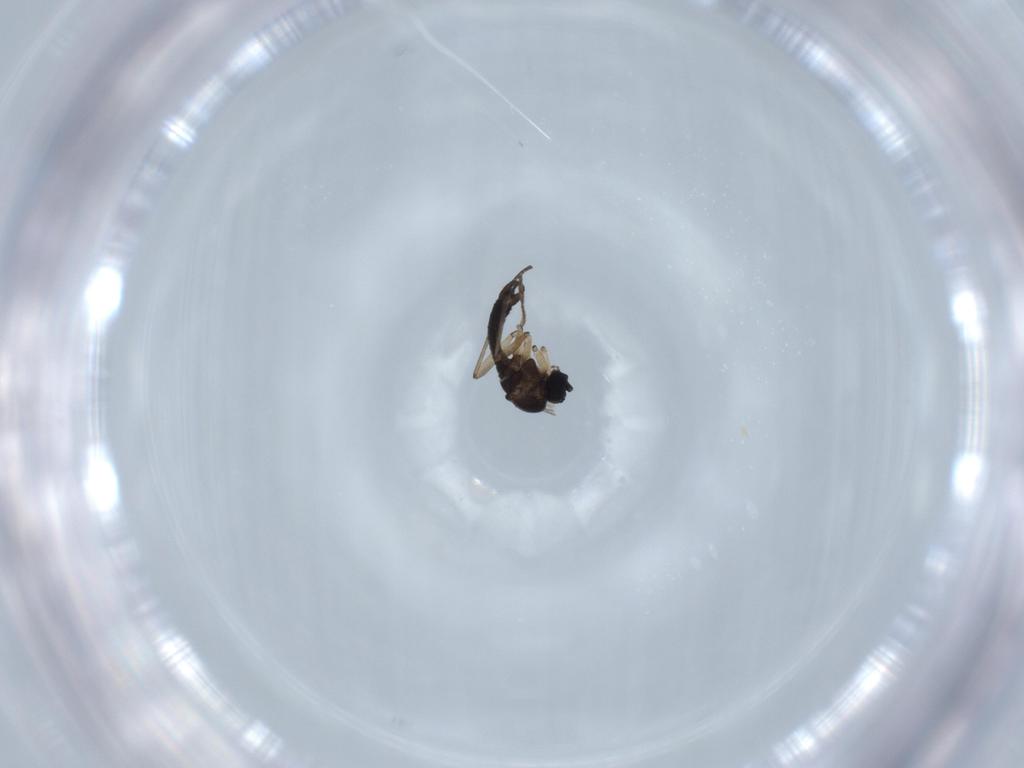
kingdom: Animalia
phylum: Arthropoda
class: Insecta
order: Diptera
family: Sciaridae
